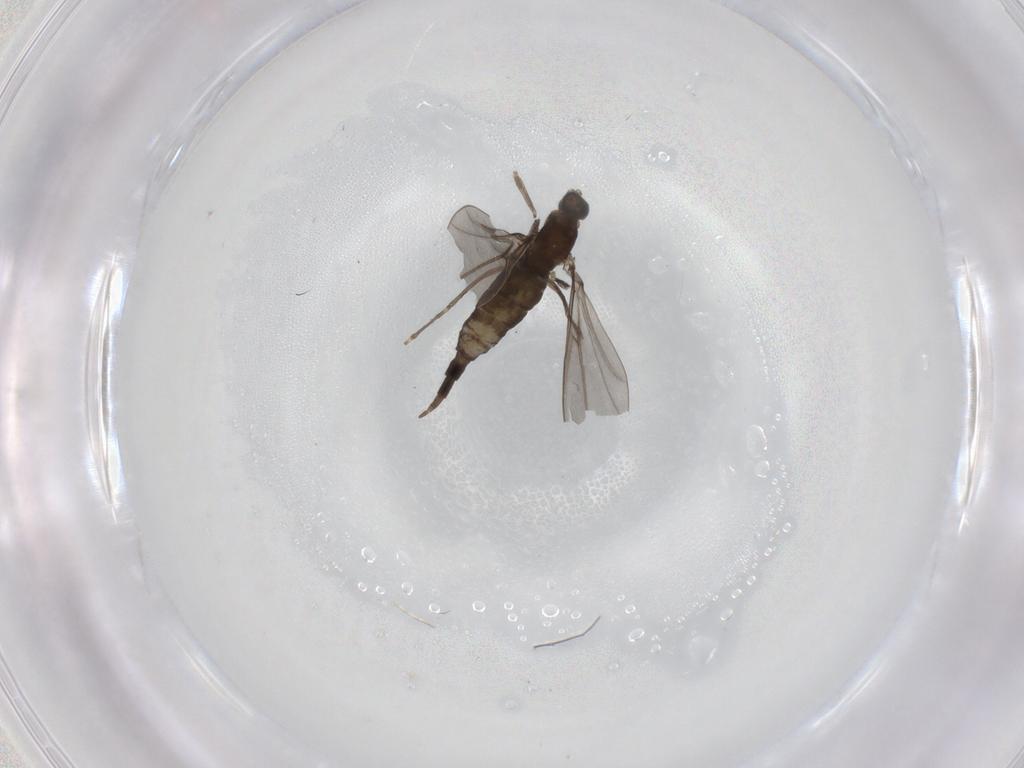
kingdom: Animalia
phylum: Arthropoda
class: Insecta
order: Diptera
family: Cecidomyiidae
